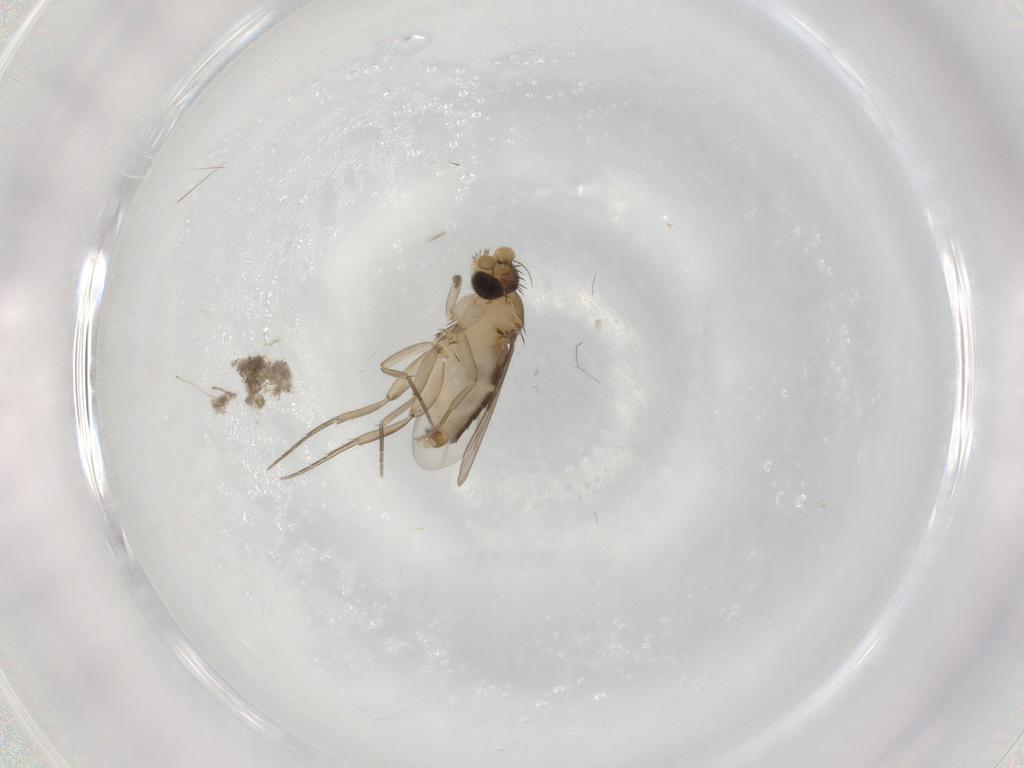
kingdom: Animalia
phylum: Arthropoda
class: Insecta
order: Diptera
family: Phoridae
